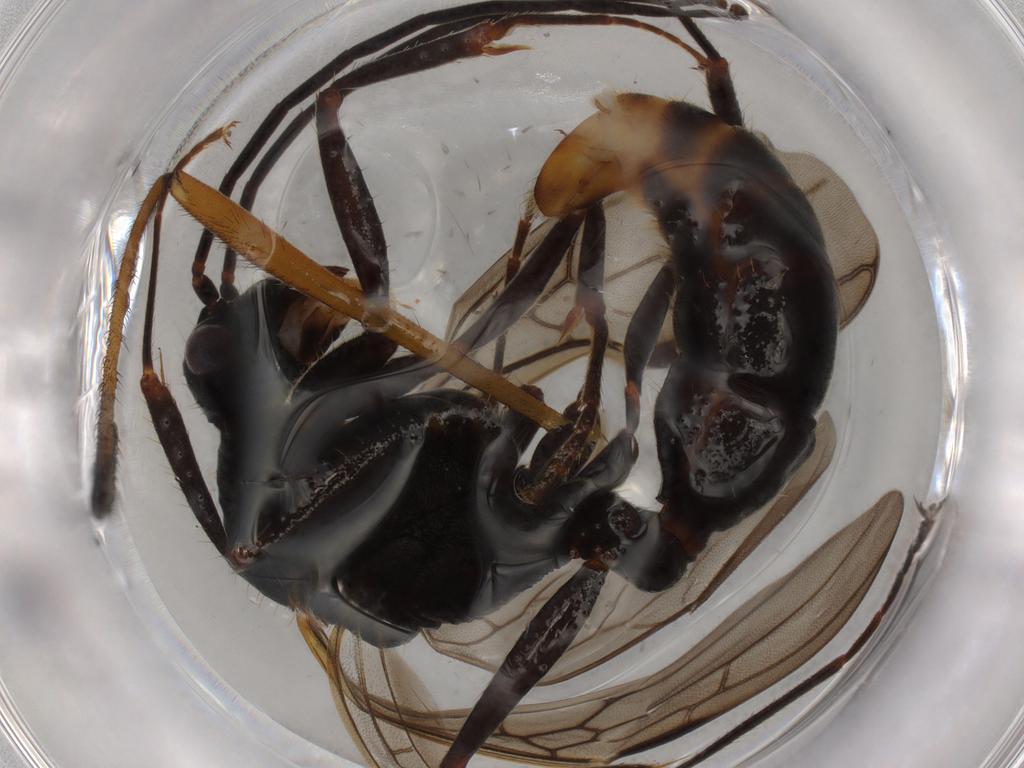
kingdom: Animalia
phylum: Arthropoda
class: Insecta
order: Hymenoptera
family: Formicidae
